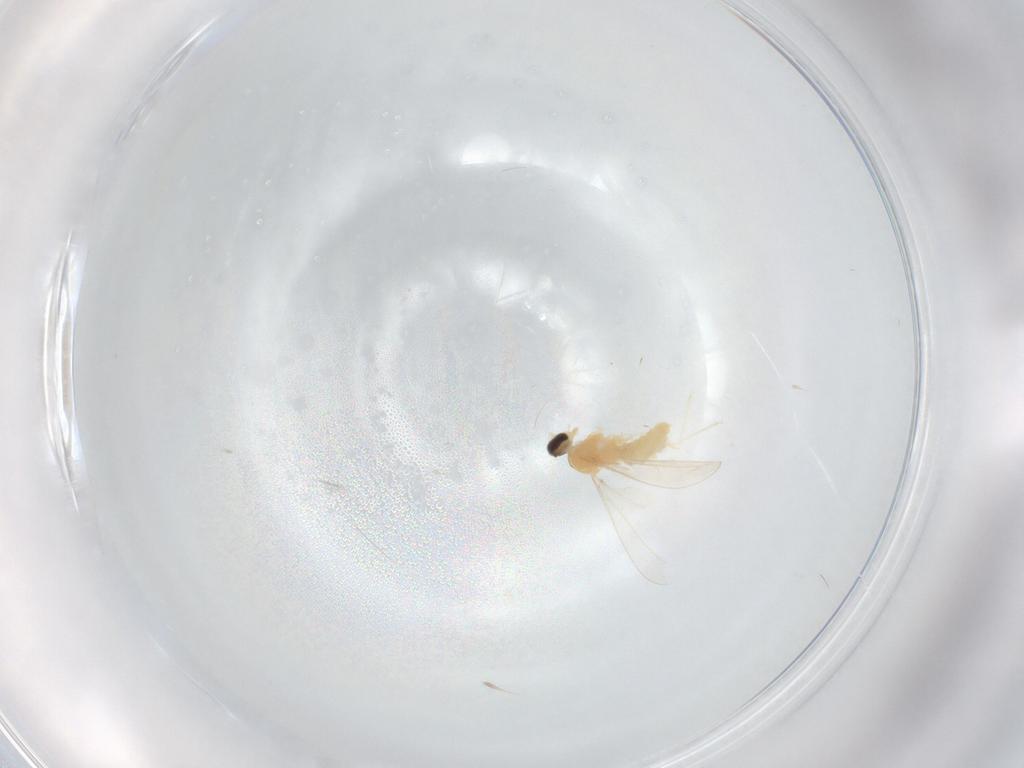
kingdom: Animalia
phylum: Arthropoda
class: Insecta
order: Diptera
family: Cecidomyiidae
